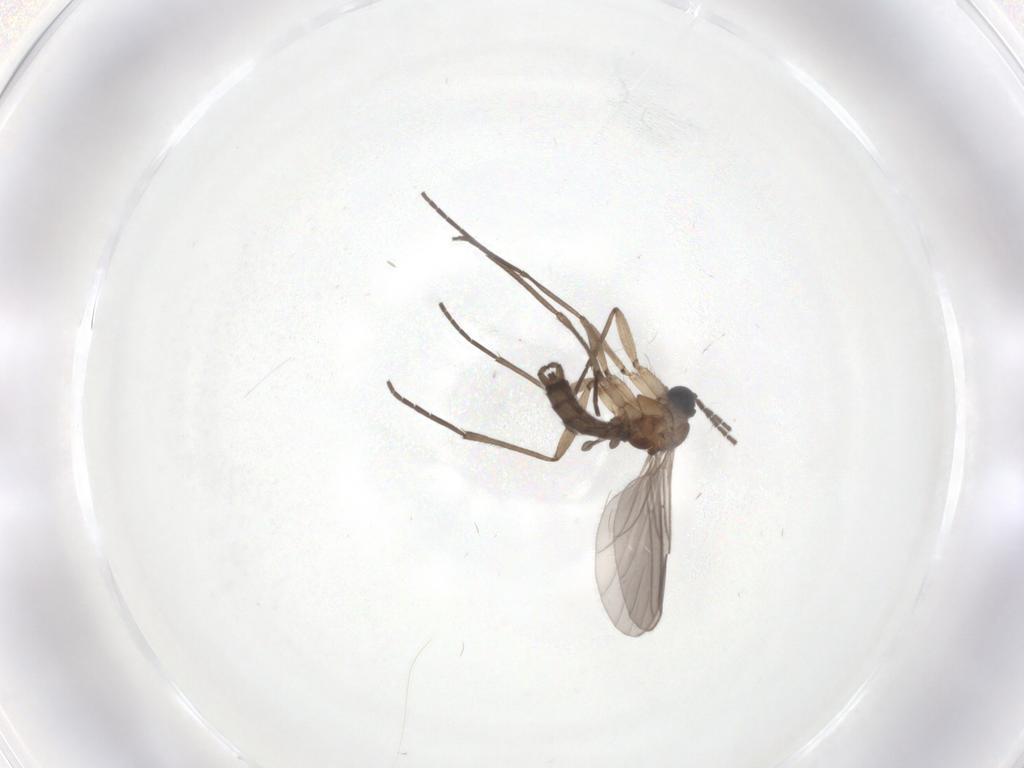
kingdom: Animalia
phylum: Arthropoda
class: Insecta
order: Diptera
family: Sciaridae
